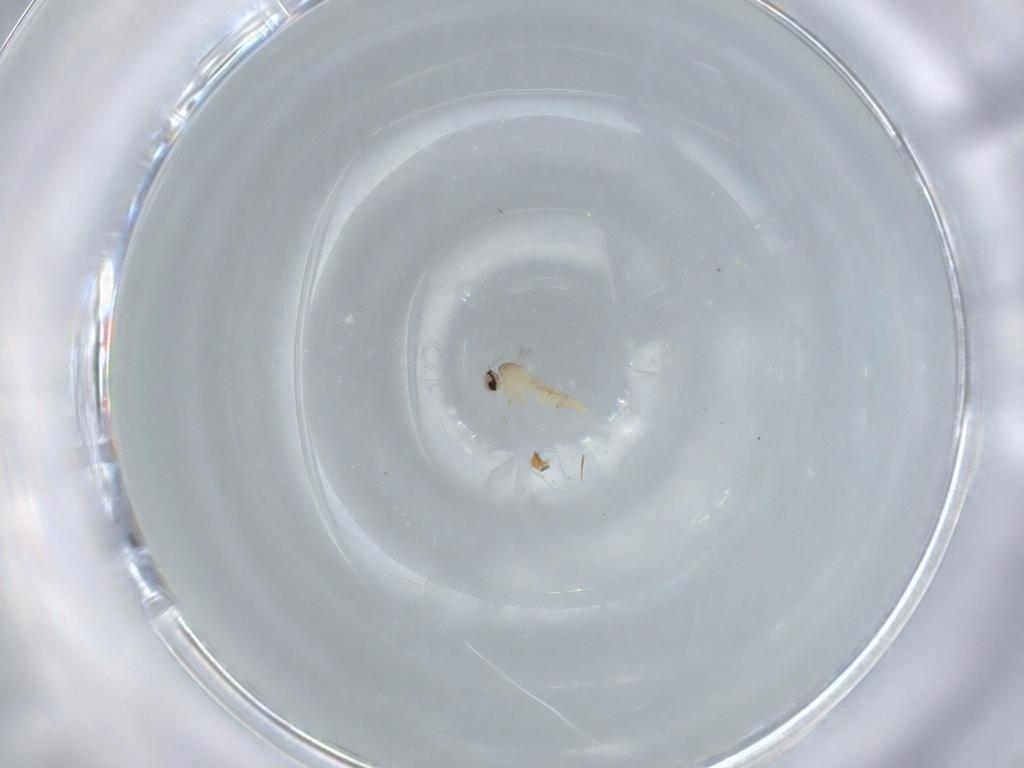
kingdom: Animalia
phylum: Arthropoda
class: Insecta
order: Diptera
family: Cecidomyiidae
